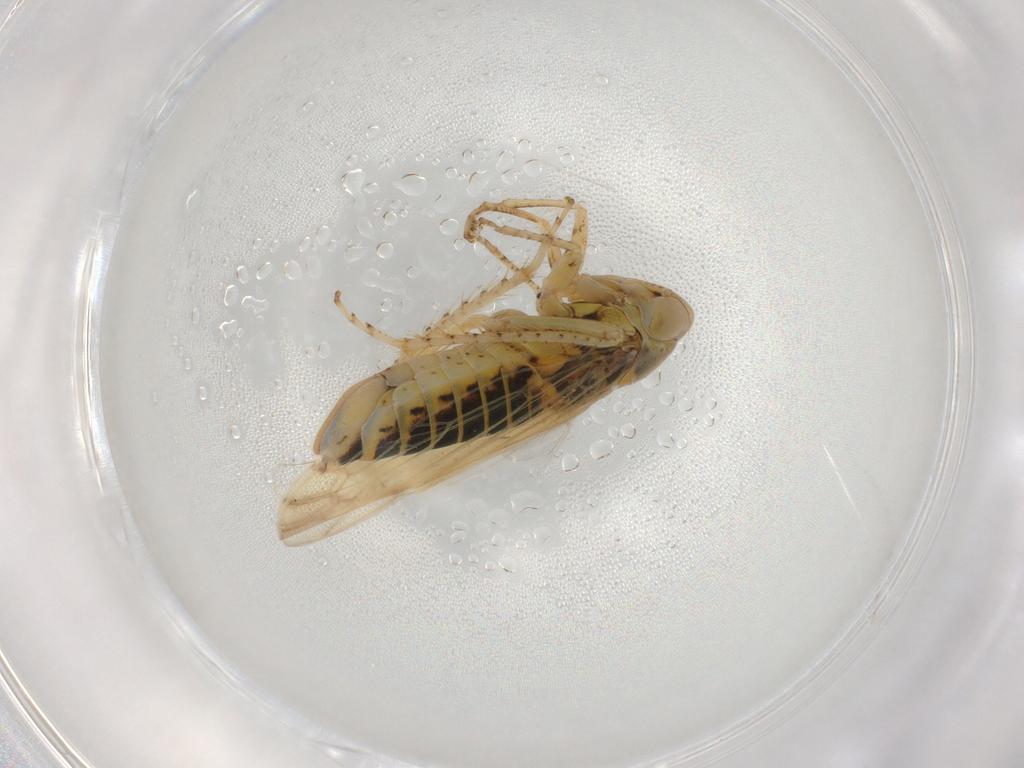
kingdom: Animalia
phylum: Arthropoda
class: Insecta
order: Hemiptera
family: Cicadellidae
